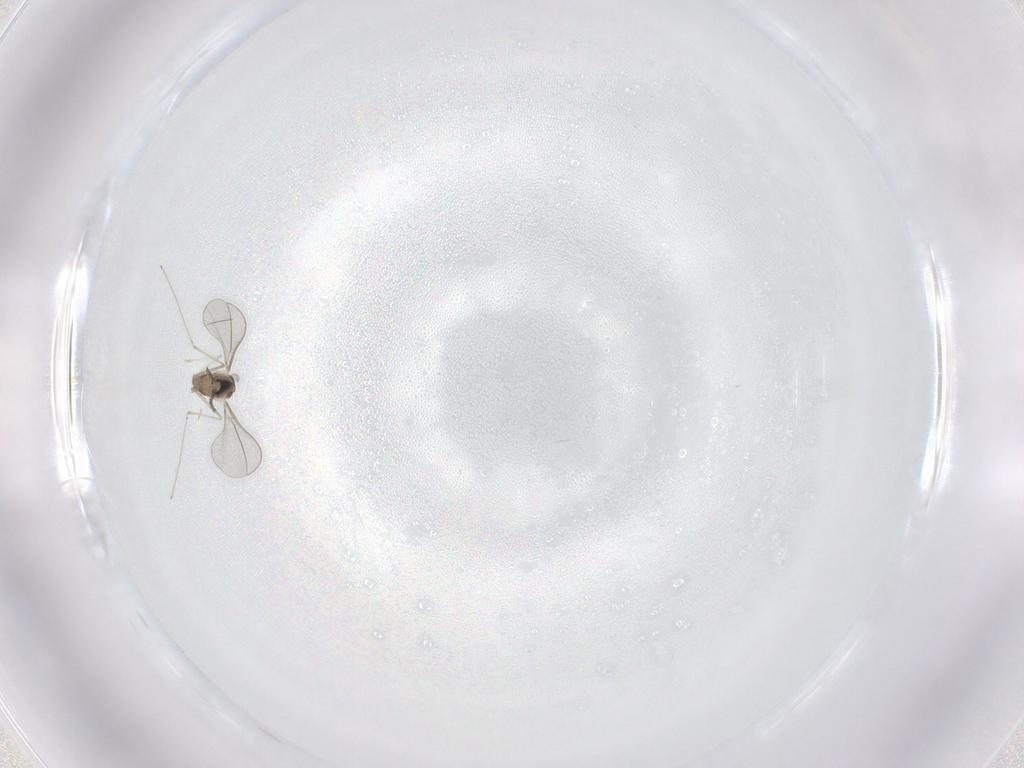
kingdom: Animalia
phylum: Arthropoda
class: Insecta
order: Diptera
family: Cecidomyiidae
